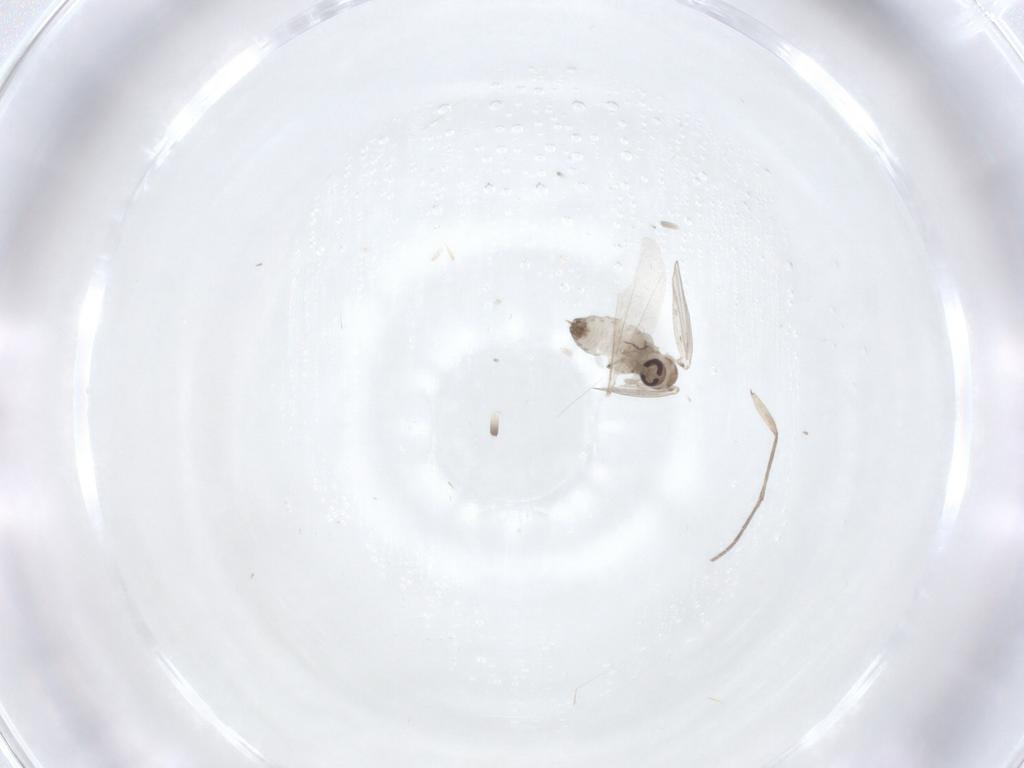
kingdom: Animalia
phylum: Arthropoda
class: Insecta
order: Diptera
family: Psychodidae
